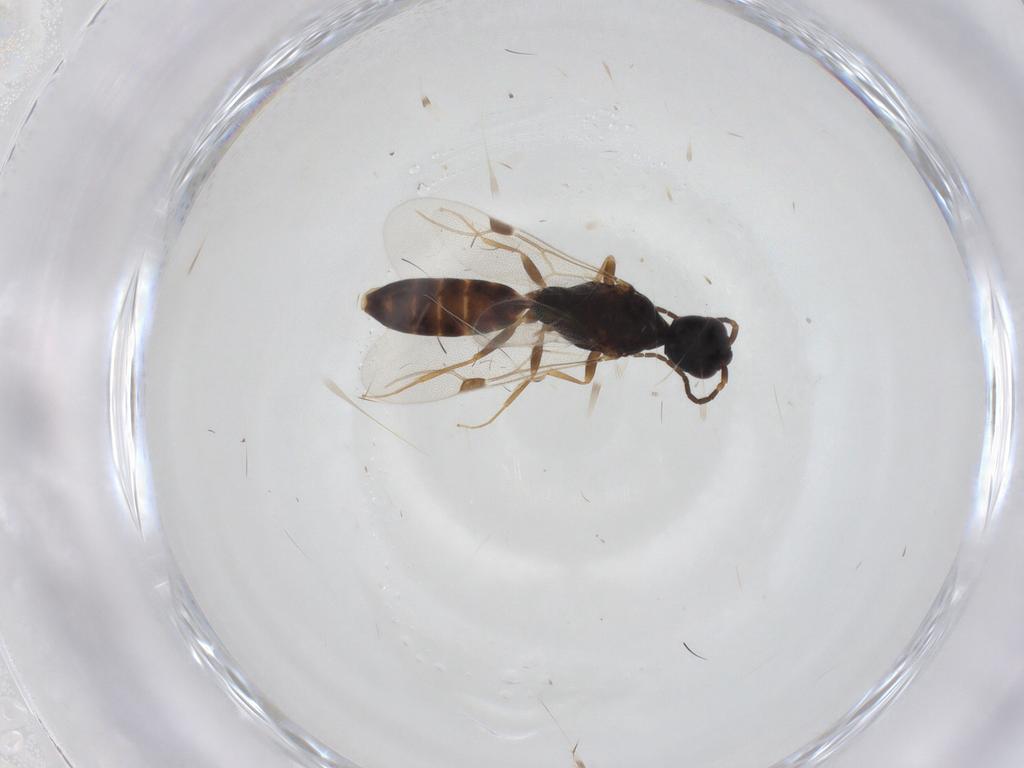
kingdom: Animalia
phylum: Arthropoda
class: Insecta
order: Hymenoptera
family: Bethylidae
